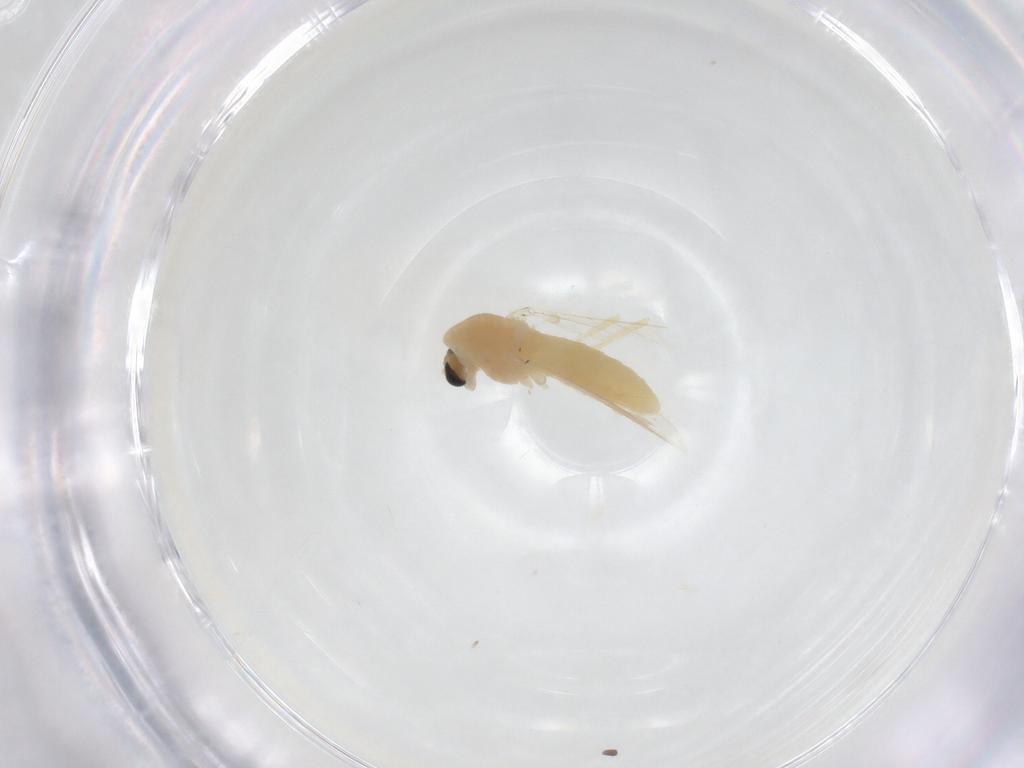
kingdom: Animalia
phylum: Arthropoda
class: Insecta
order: Diptera
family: Chironomidae
